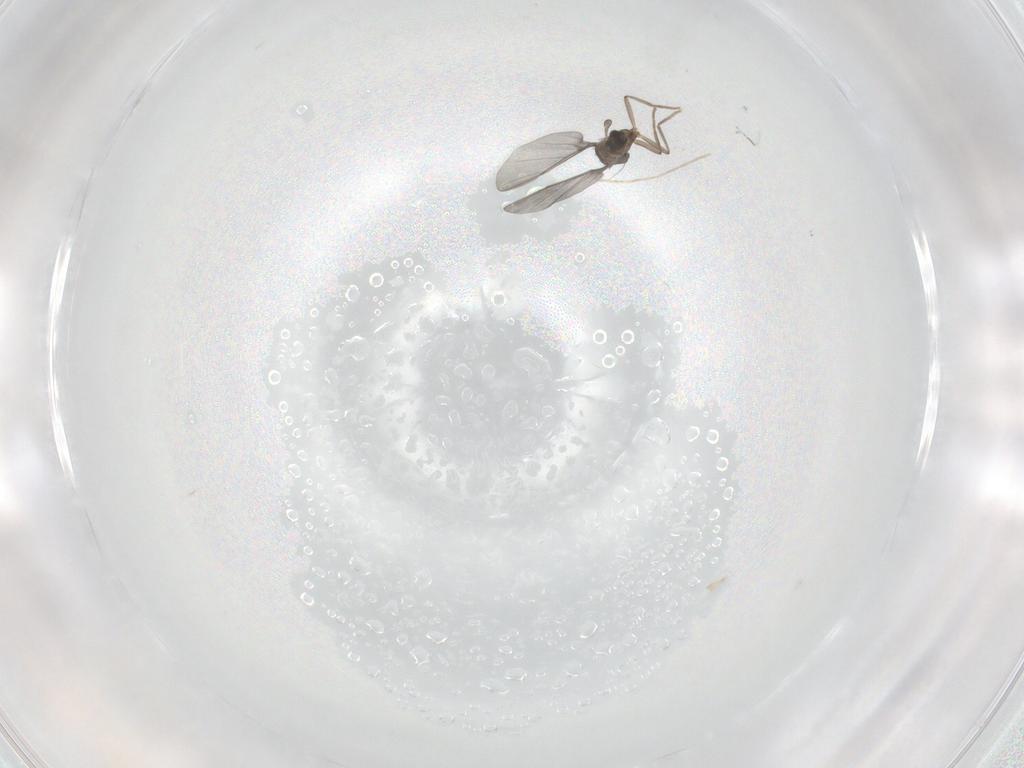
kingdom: Animalia
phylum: Arthropoda
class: Insecta
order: Diptera
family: Phoridae
